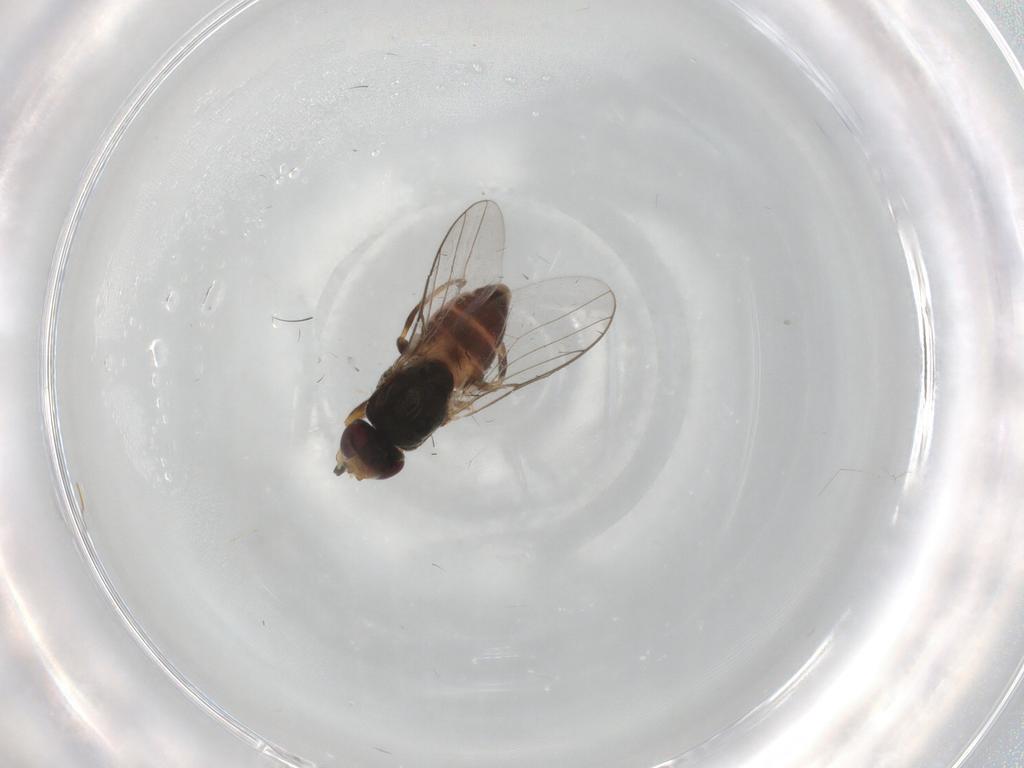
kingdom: Animalia
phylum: Arthropoda
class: Insecta
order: Diptera
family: Chloropidae
